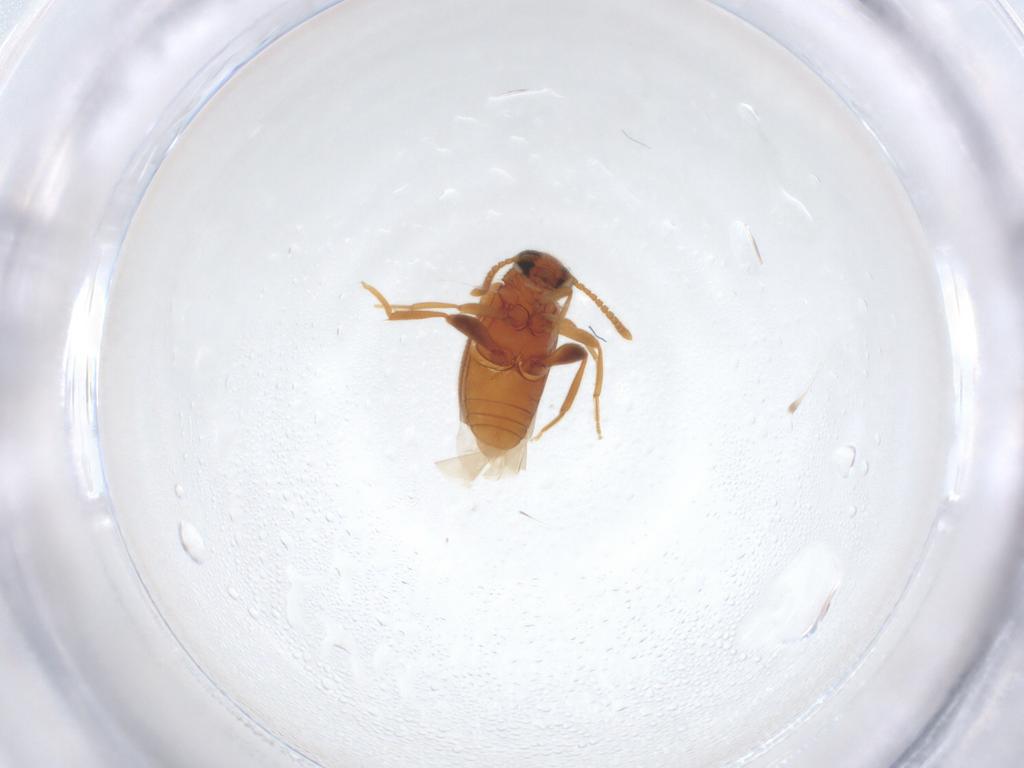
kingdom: Animalia
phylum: Arthropoda
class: Insecta
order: Coleoptera
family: Aderidae
